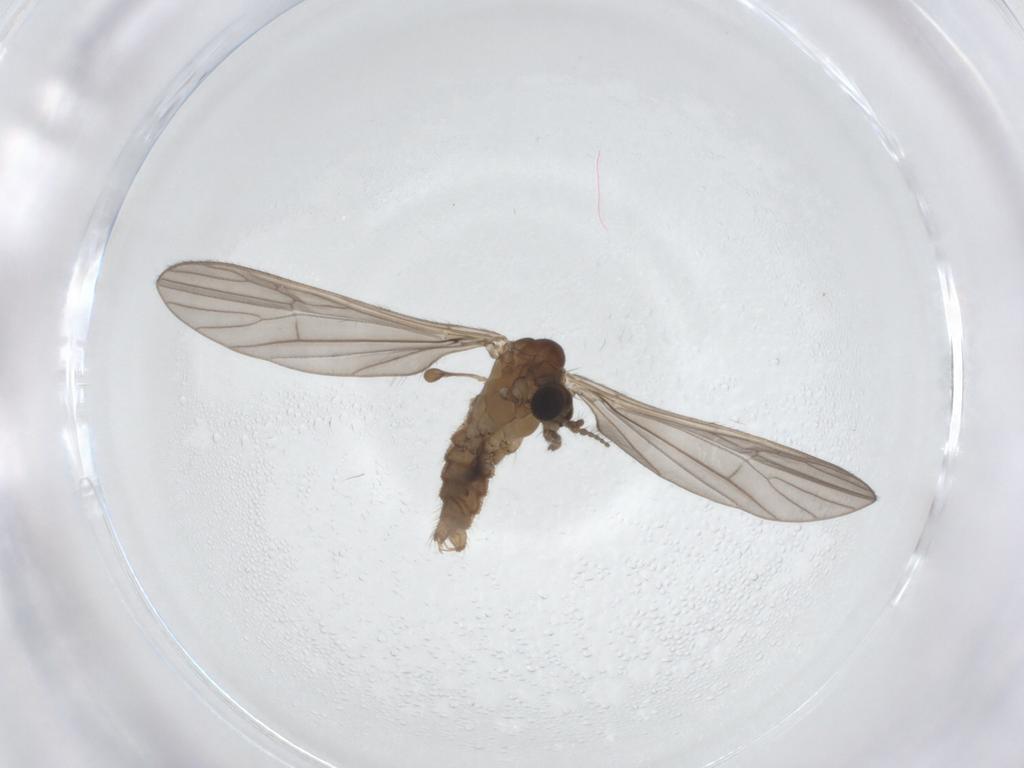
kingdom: Animalia
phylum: Arthropoda
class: Insecta
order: Diptera
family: Limoniidae
